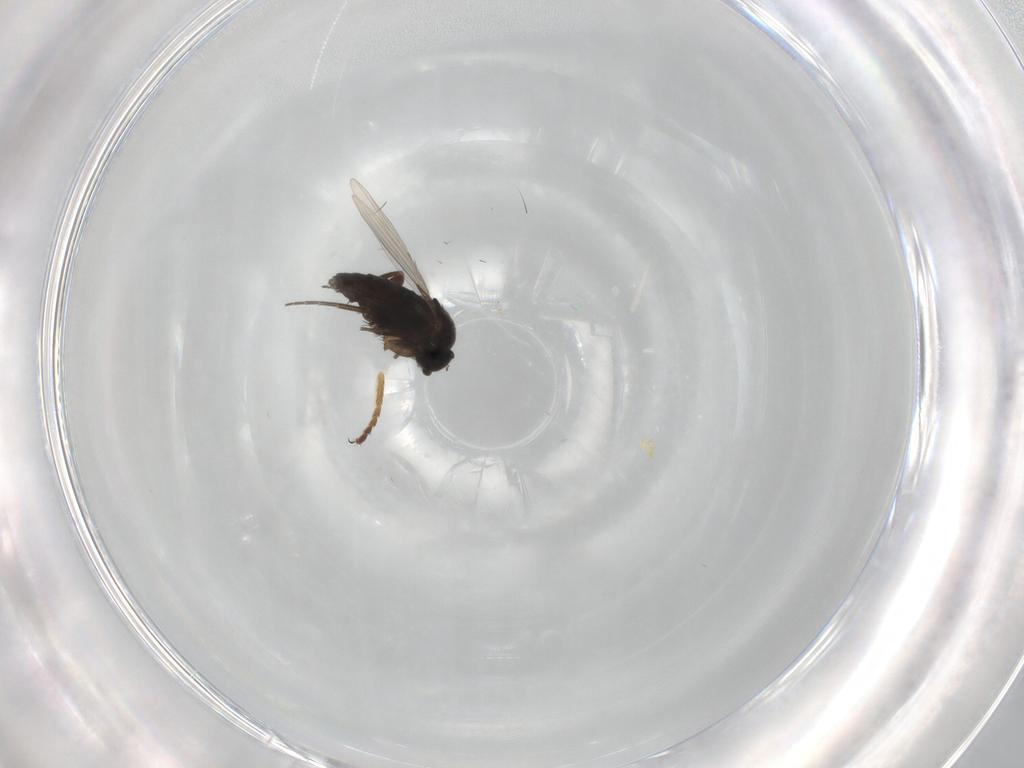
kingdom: Animalia
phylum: Arthropoda
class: Insecta
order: Diptera
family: Chloropidae
